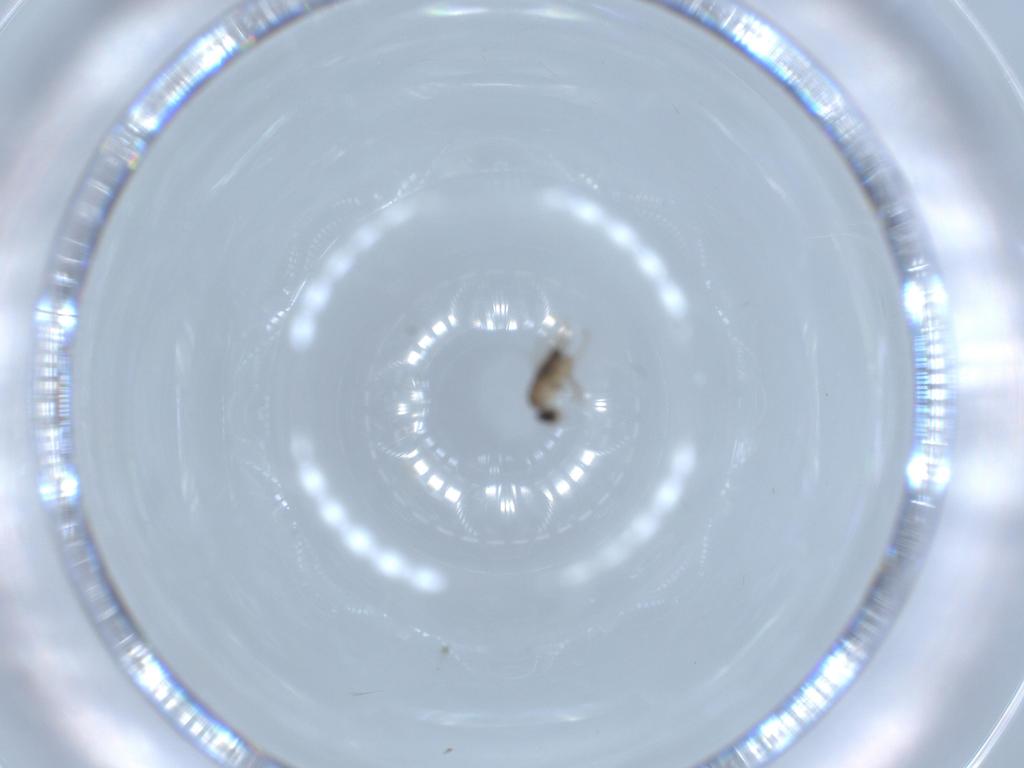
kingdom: Animalia
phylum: Arthropoda
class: Insecta
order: Diptera
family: Phoridae
